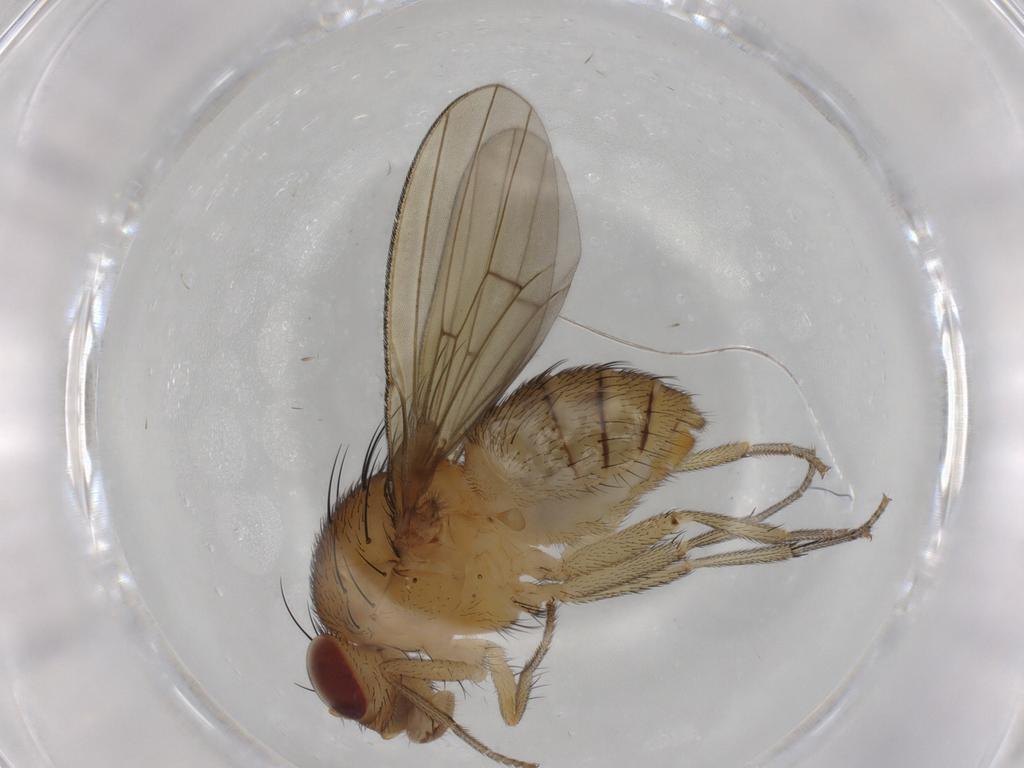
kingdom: Animalia
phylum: Arthropoda
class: Insecta
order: Diptera
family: Lauxaniidae
